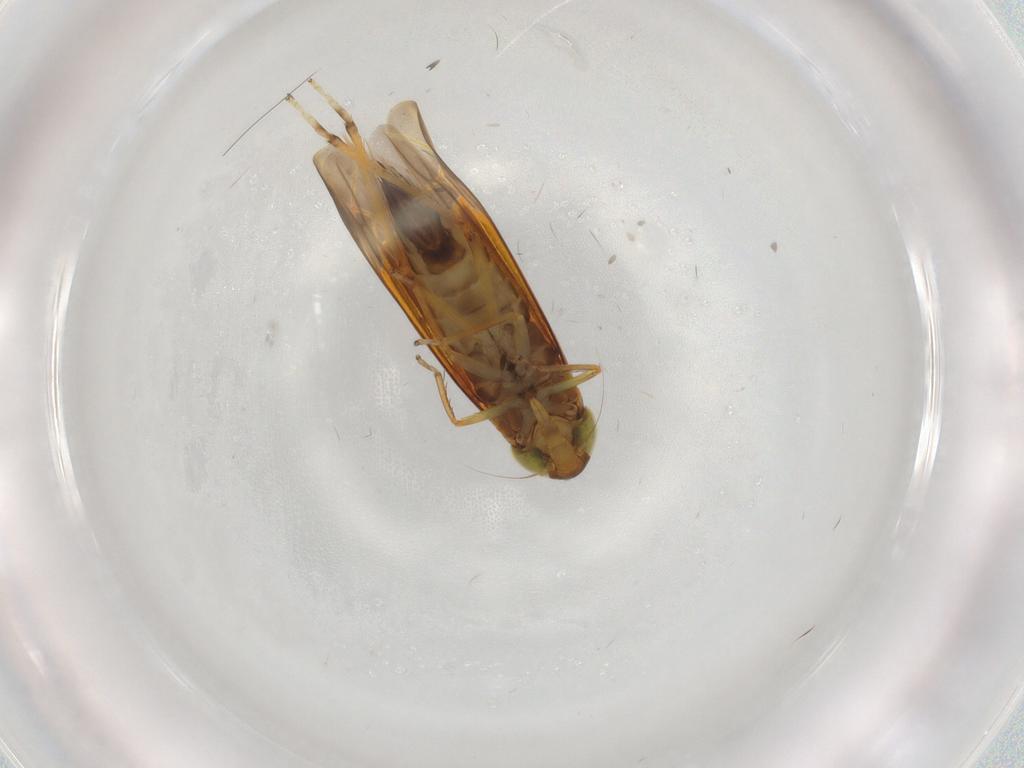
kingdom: Animalia
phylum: Arthropoda
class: Insecta
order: Hemiptera
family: Cicadellidae
